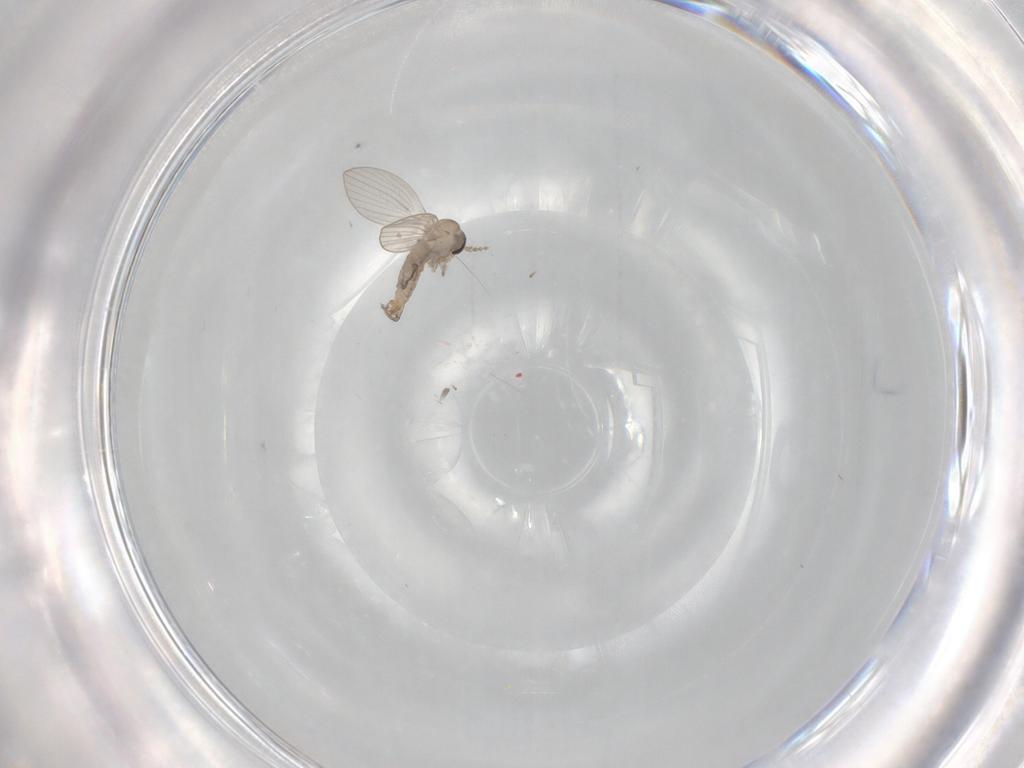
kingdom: Animalia
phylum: Arthropoda
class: Insecta
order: Diptera
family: Psychodidae
